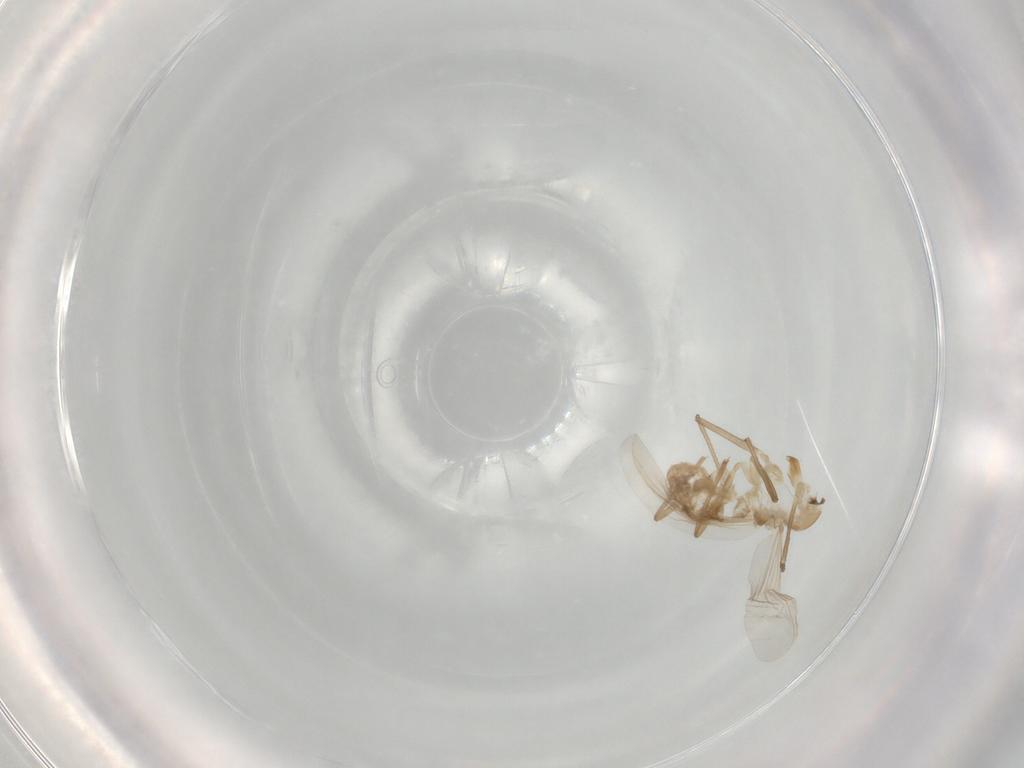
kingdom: Animalia
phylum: Arthropoda
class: Insecta
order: Diptera
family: Chironomidae
